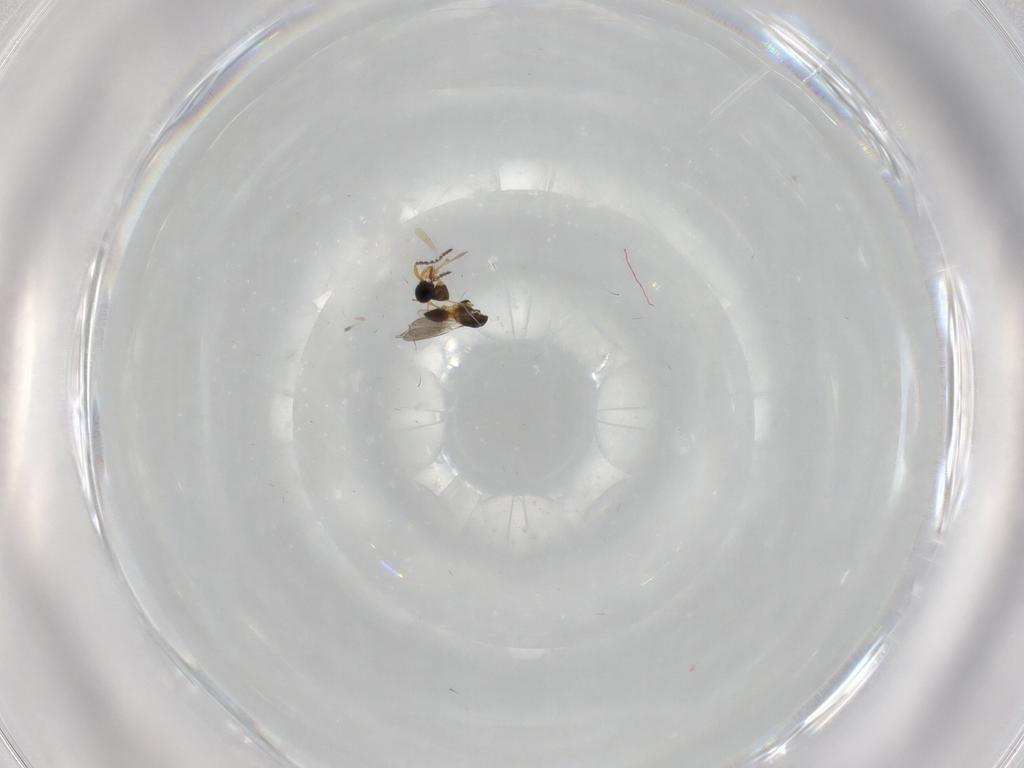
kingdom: Animalia
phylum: Arthropoda
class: Insecta
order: Hymenoptera
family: Platygastridae
